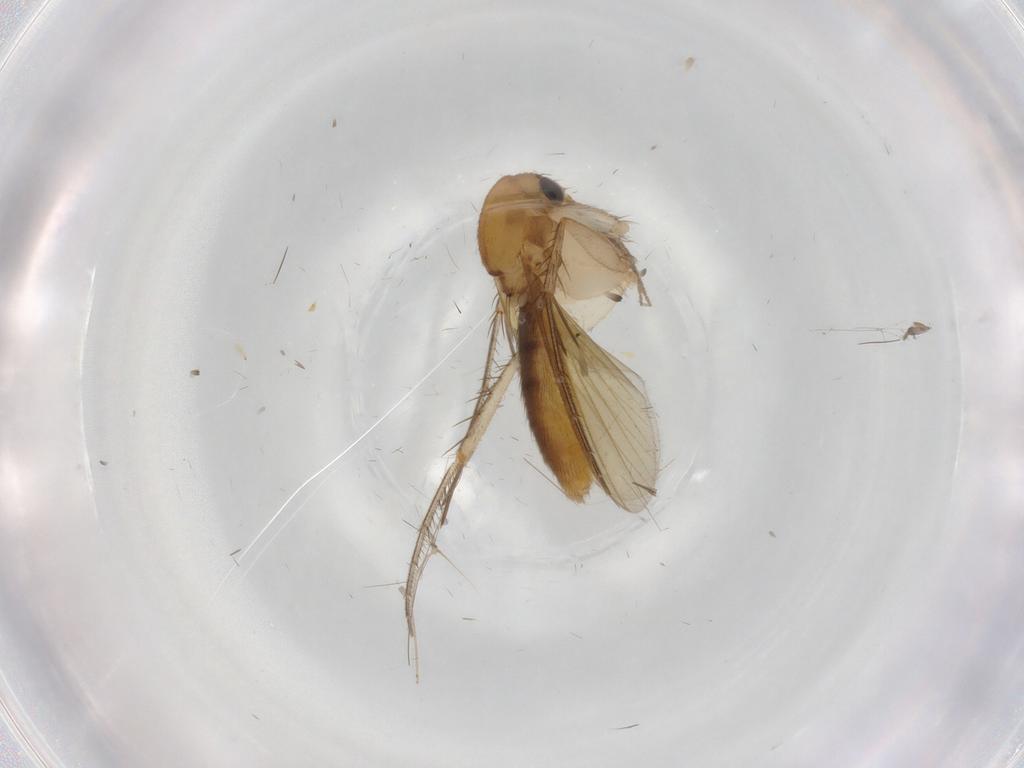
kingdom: Animalia
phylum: Arthropoda
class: Insecta
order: Diptera
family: Mycetophilidae
